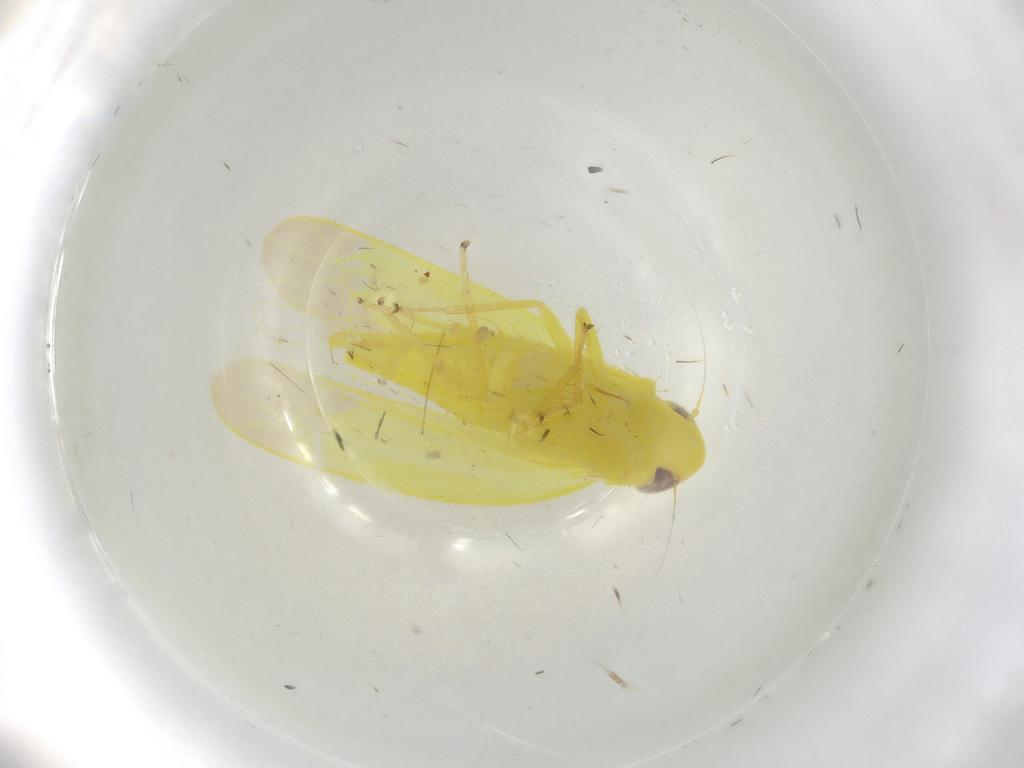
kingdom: Animalia
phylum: Arthropoda
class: Insecta
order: Hemiptera
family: Cicadellidae
